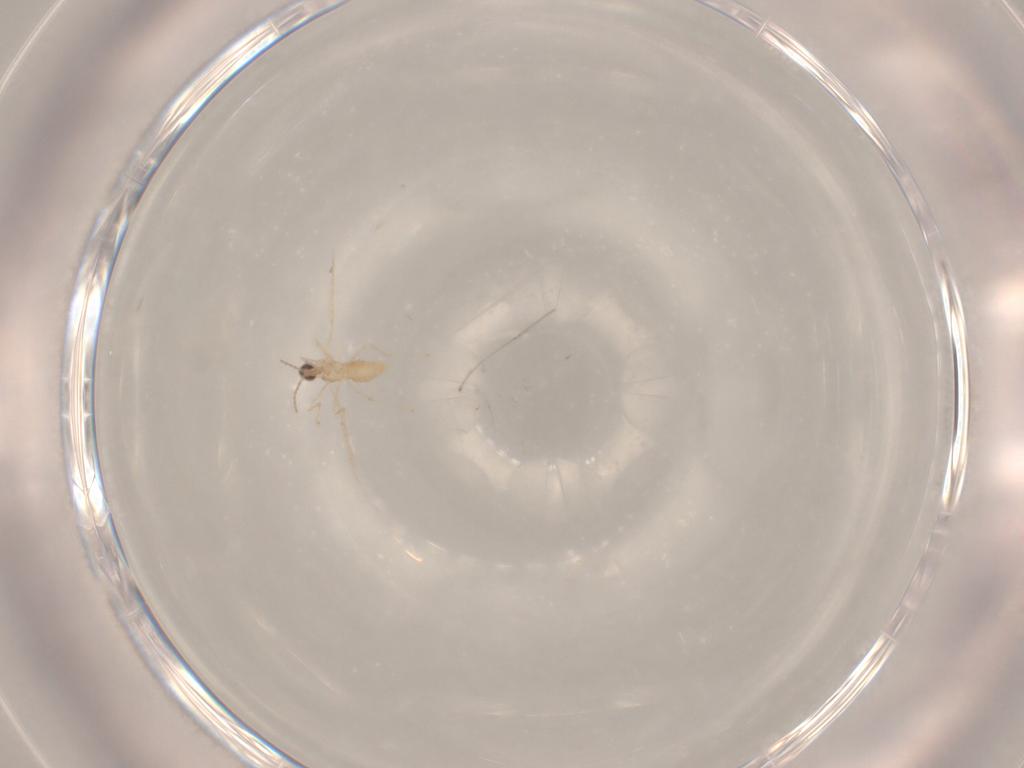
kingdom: Animalia
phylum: Arthropoda
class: Insecta
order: Diptera
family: Cecidomyiidae
